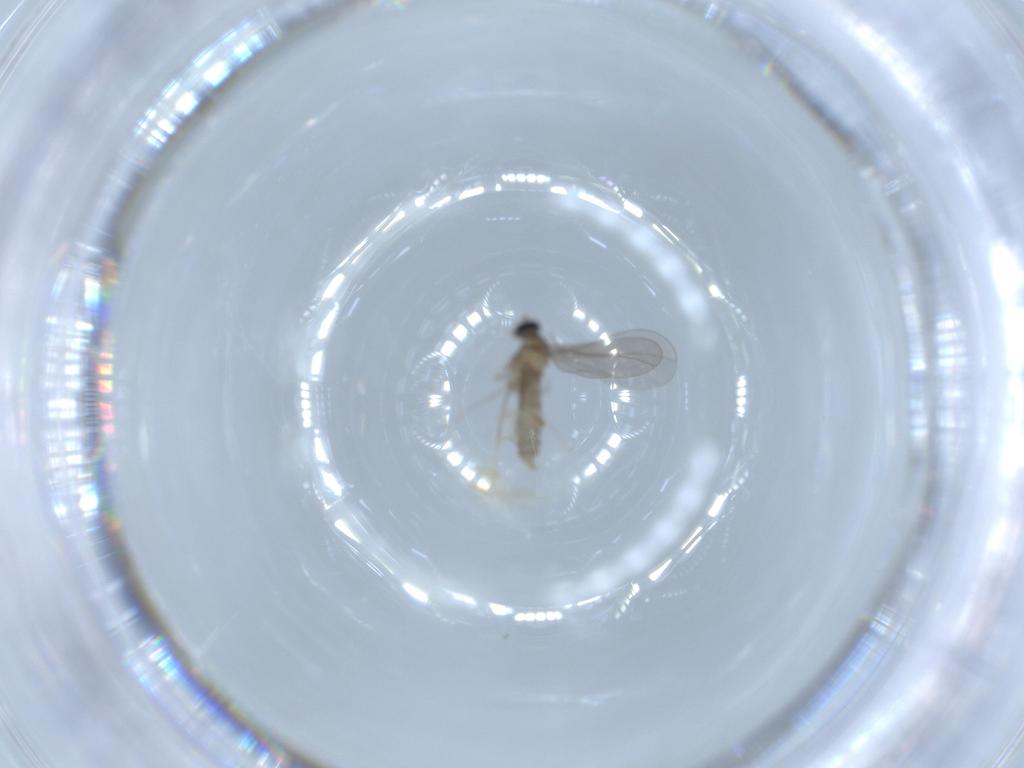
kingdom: Animalia
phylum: Arthropoda
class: Insecta
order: Diptera
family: Cecidomyiidae
